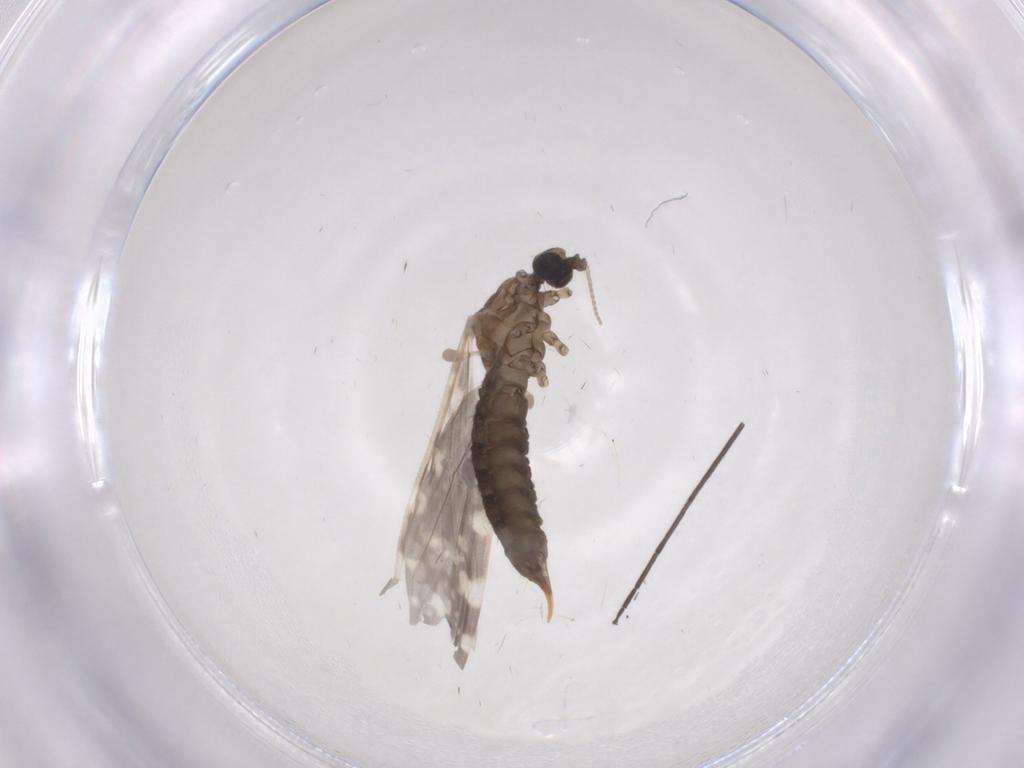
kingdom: Animalia
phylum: Arthropoda
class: Insecta
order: Diptera
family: Limoniidae
